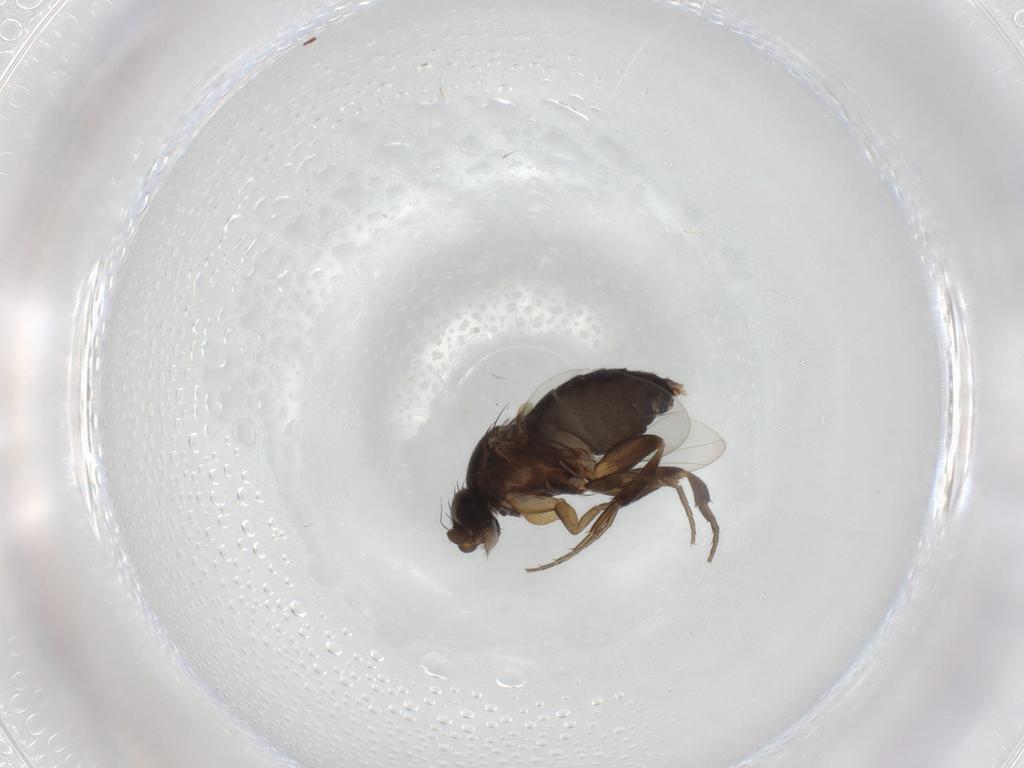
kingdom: Animalia
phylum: Arthropoda
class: Insecta
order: Diptera
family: Phoridae
